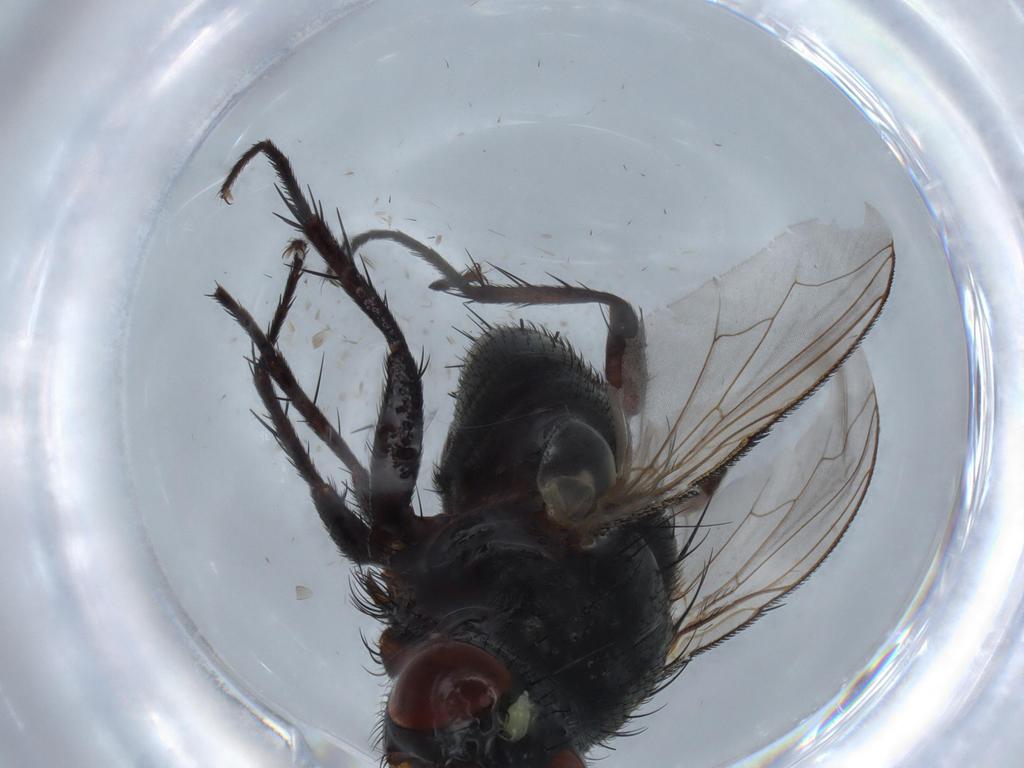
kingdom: Animalia
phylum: Arthropoda
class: Insecta
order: Diptera
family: Sarcophagidae
